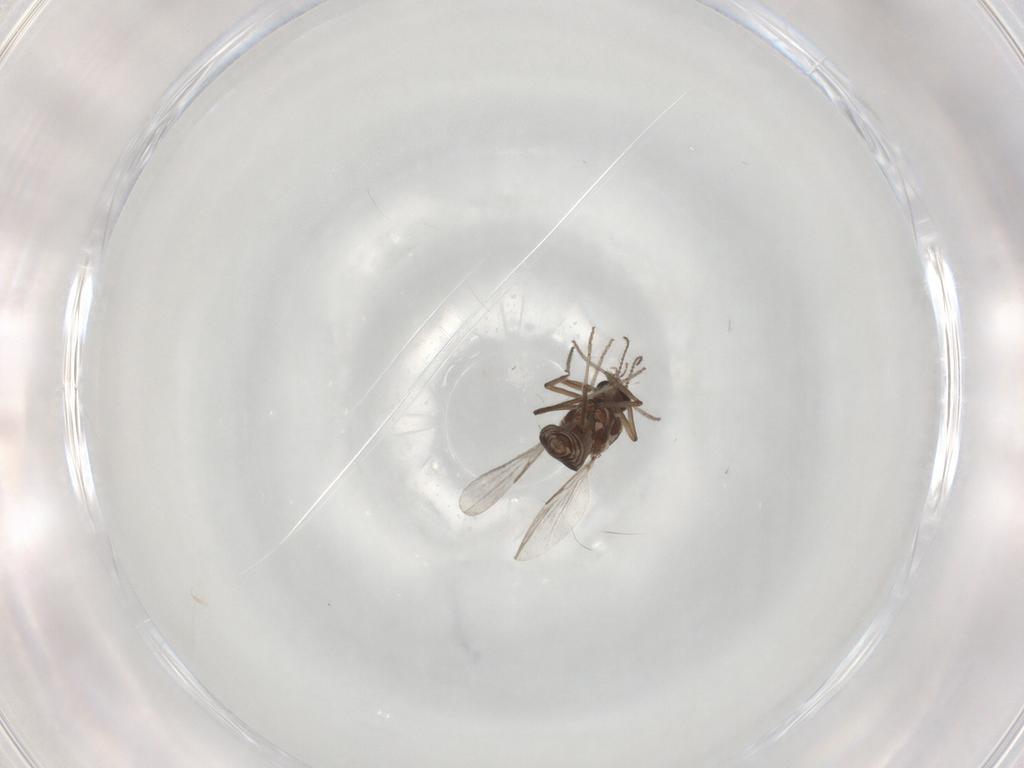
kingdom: Animalia
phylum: Arthropoda
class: Insecta
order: Diptera
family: Ceratopogonidae
